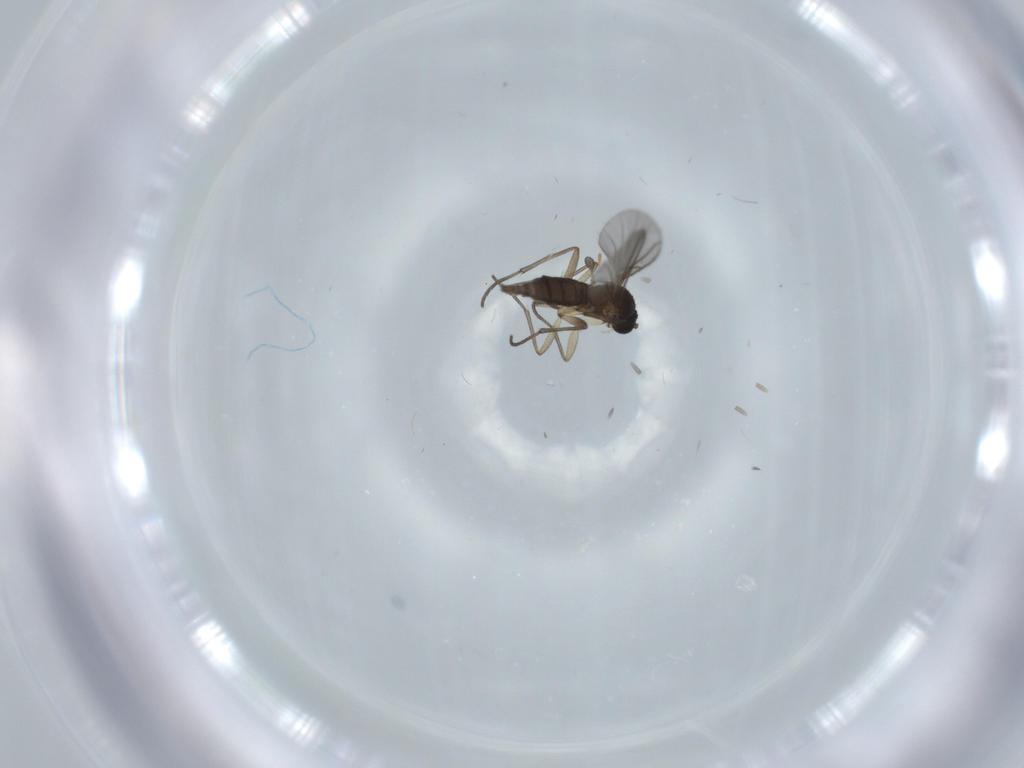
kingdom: Animalia
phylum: Arthropoda
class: Insecta
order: Diptera
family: Sciaridae
